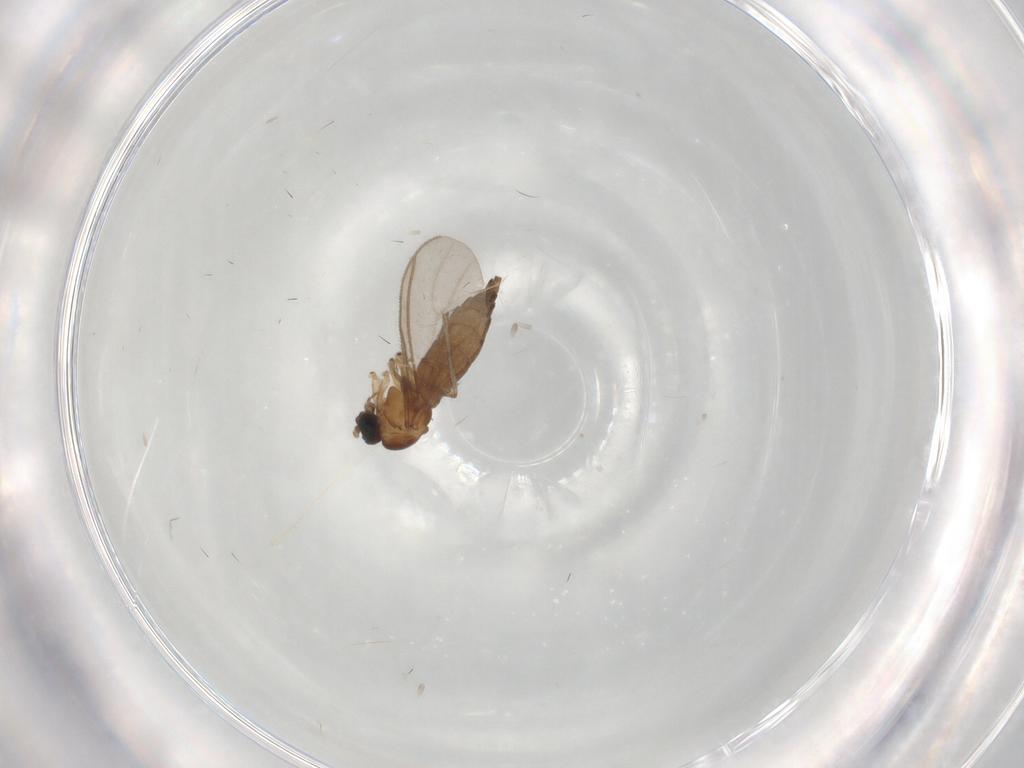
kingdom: Animalia
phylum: Arthropoda
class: Insecta
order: Diptera
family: Sciaridae
